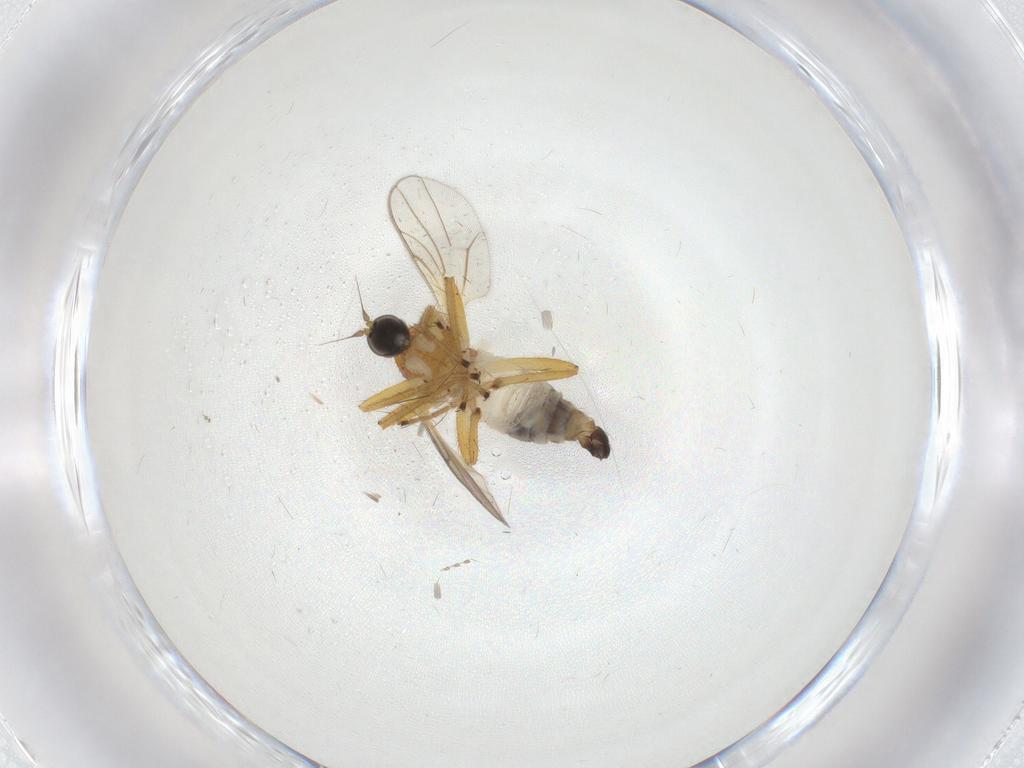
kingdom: Animalia
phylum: Arthropoda
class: Insecta
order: Diptera
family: Hybotidae
